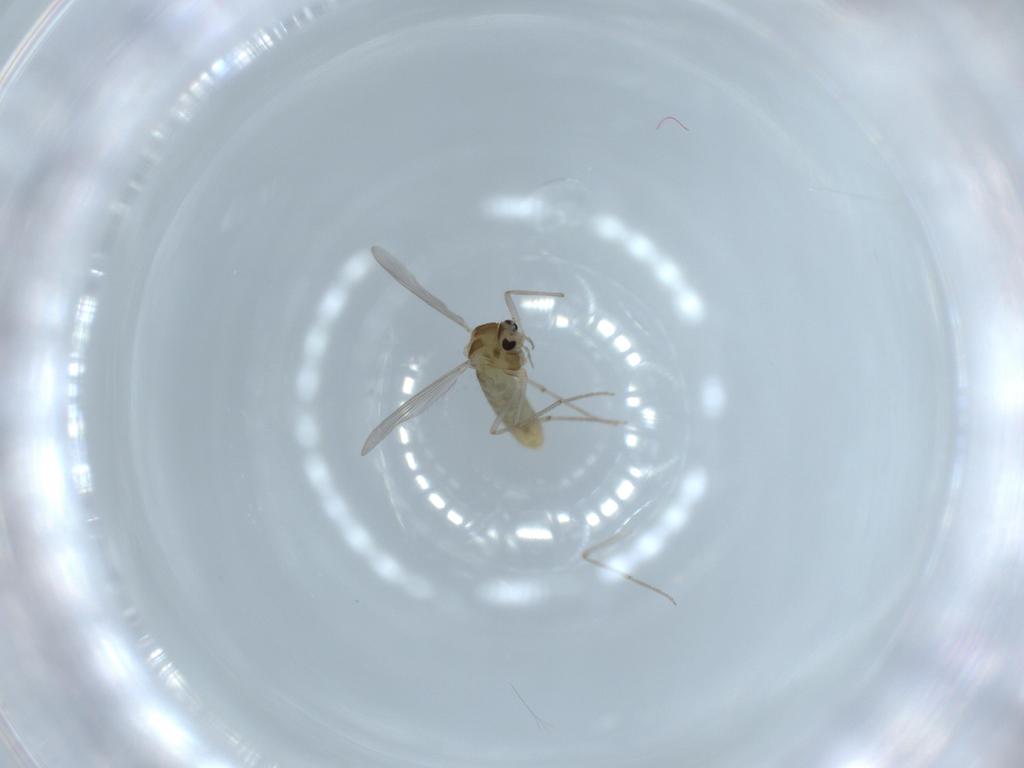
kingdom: Animalia
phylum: Arthropoda
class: Insecta
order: Diptera
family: Chironomidae
